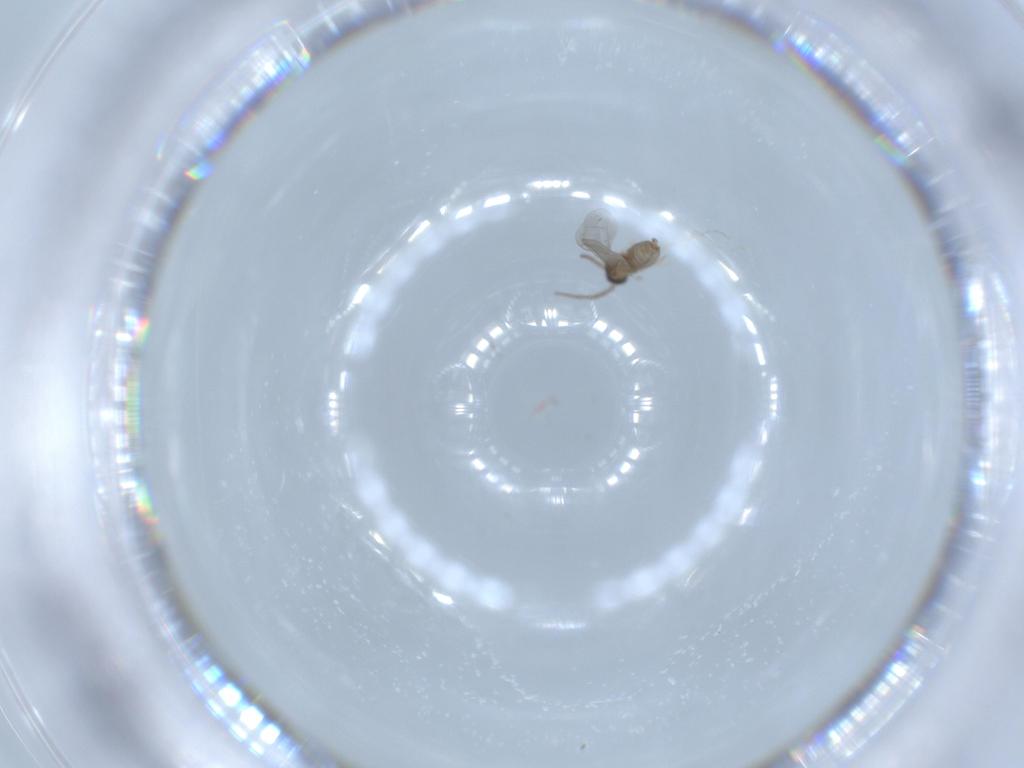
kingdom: Animalia
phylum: Arthropoda
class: Insecta
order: Diptera
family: Cecidomyiidae
